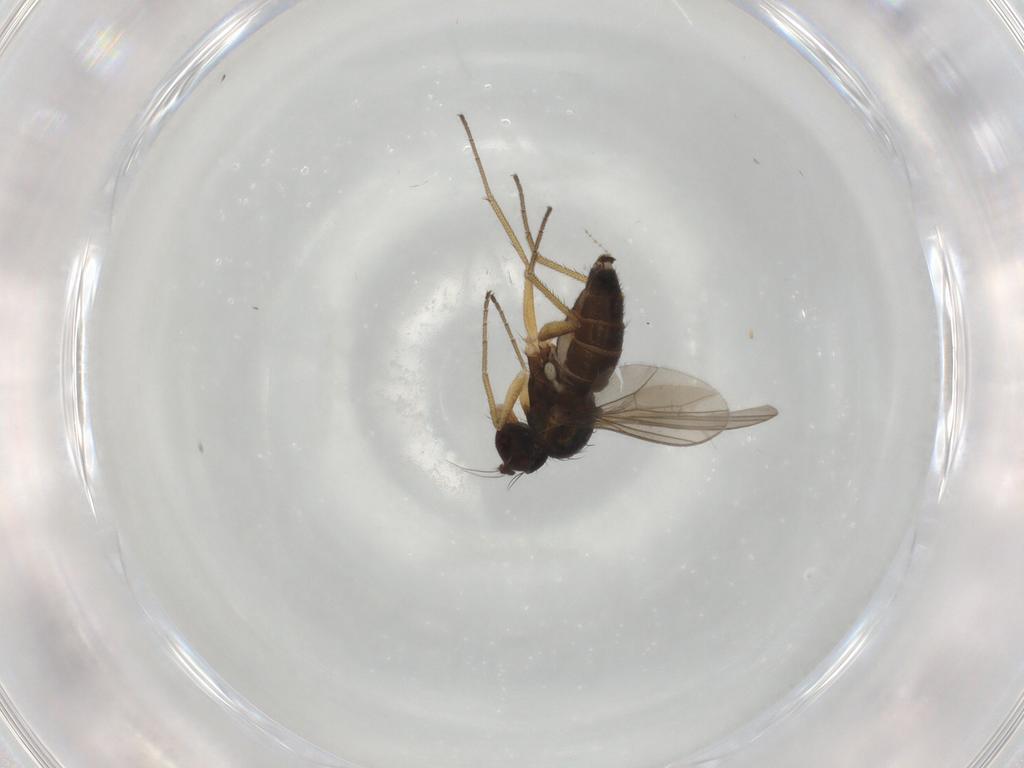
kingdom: Animalia
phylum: Arthropoda
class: Insecta
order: Diptera
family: Dolichopodidae
